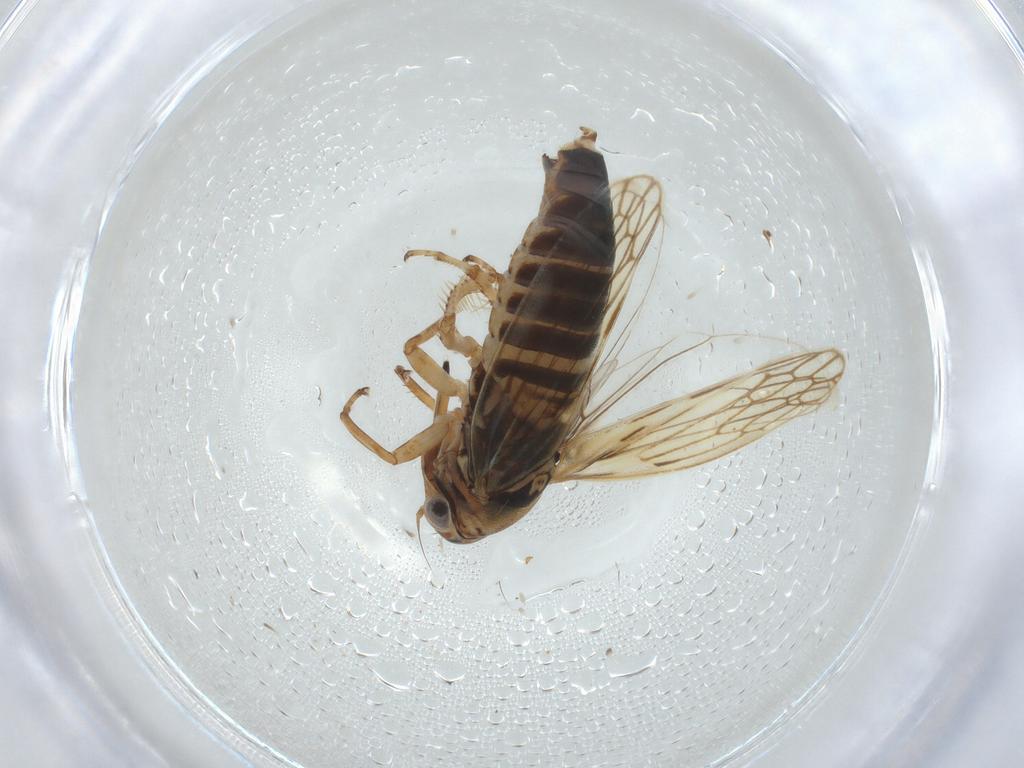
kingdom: Animalia
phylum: Arthropoda
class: Insecta
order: Hemiptera
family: Cicadellidae
